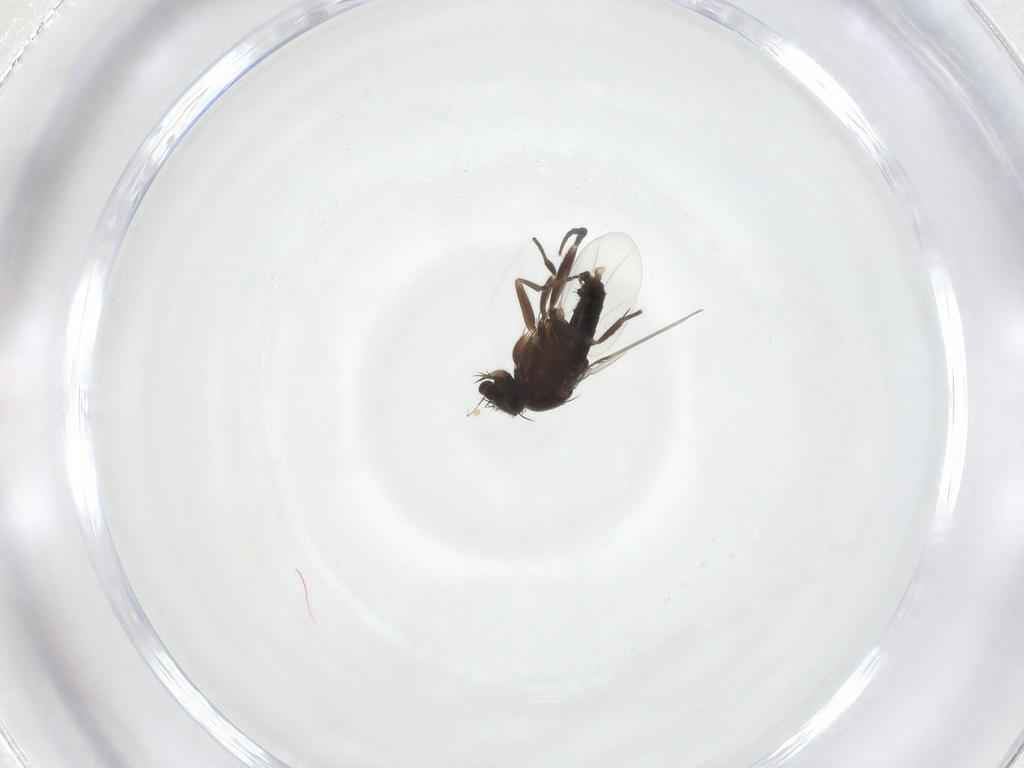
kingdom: Animalia
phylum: Arthropoda
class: Insecta
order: Diptera
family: Phoridae
